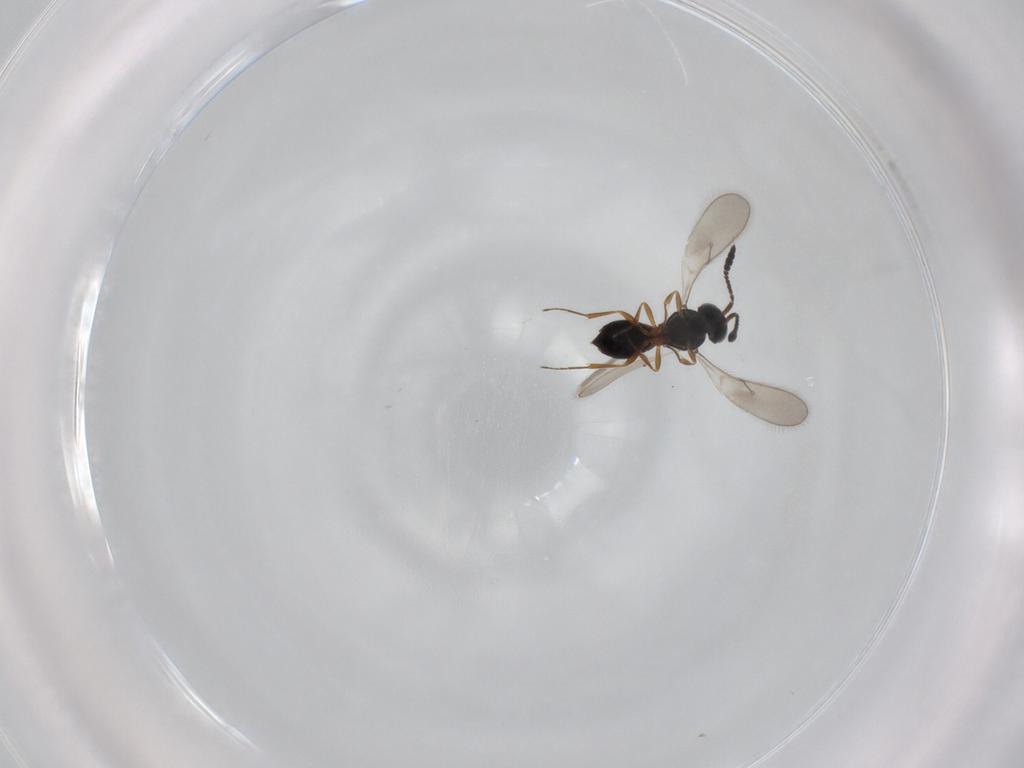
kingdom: Animalia
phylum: Arthropoda
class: Insecta
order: Hymenoptera
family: Scelionidae
